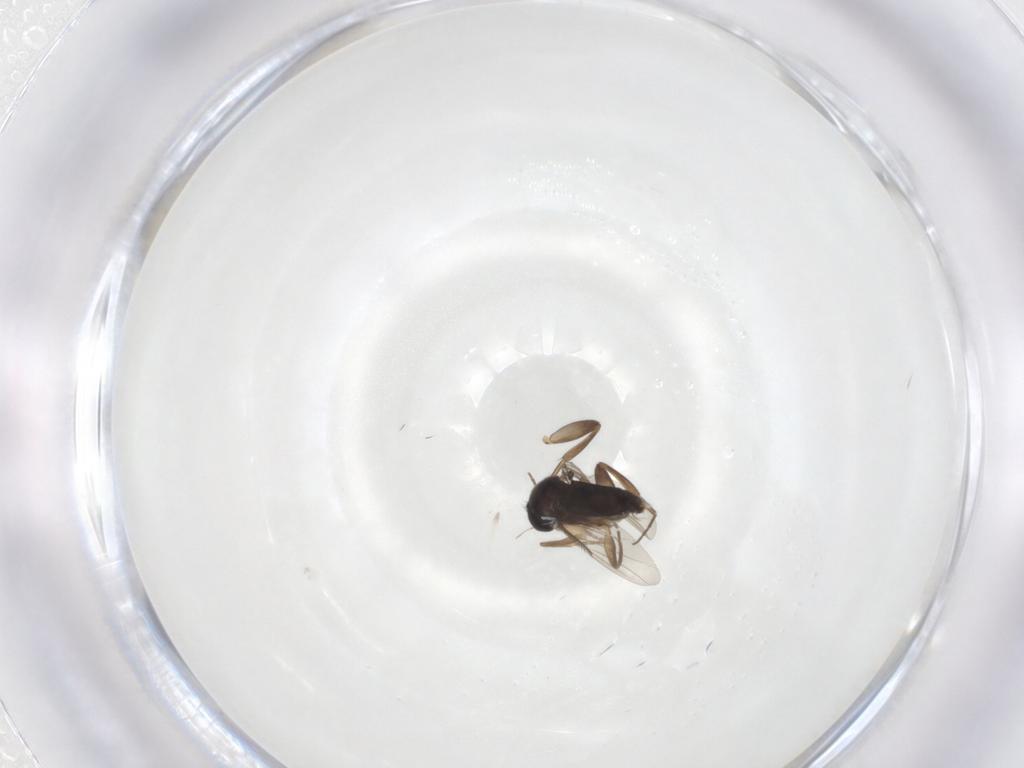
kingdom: Animalia
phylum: Arthropoda
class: Insecta
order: Diptera
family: Phoridae
